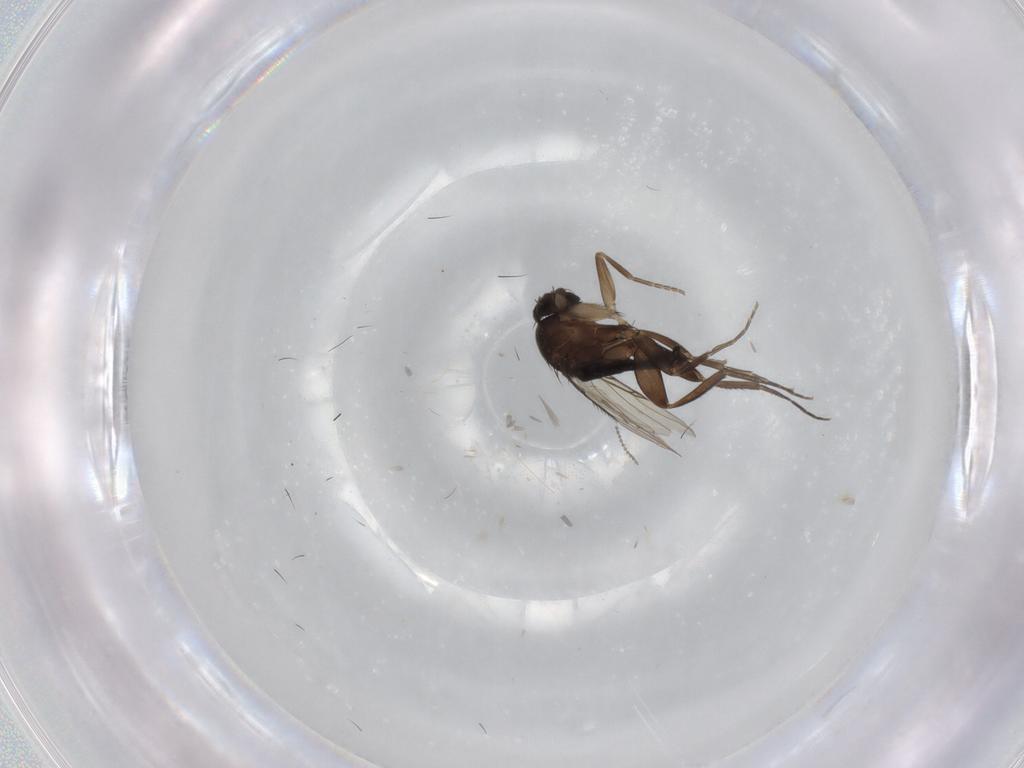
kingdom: Animalia
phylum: Arthropoda
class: Insecta
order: Diptera
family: Phoridae
